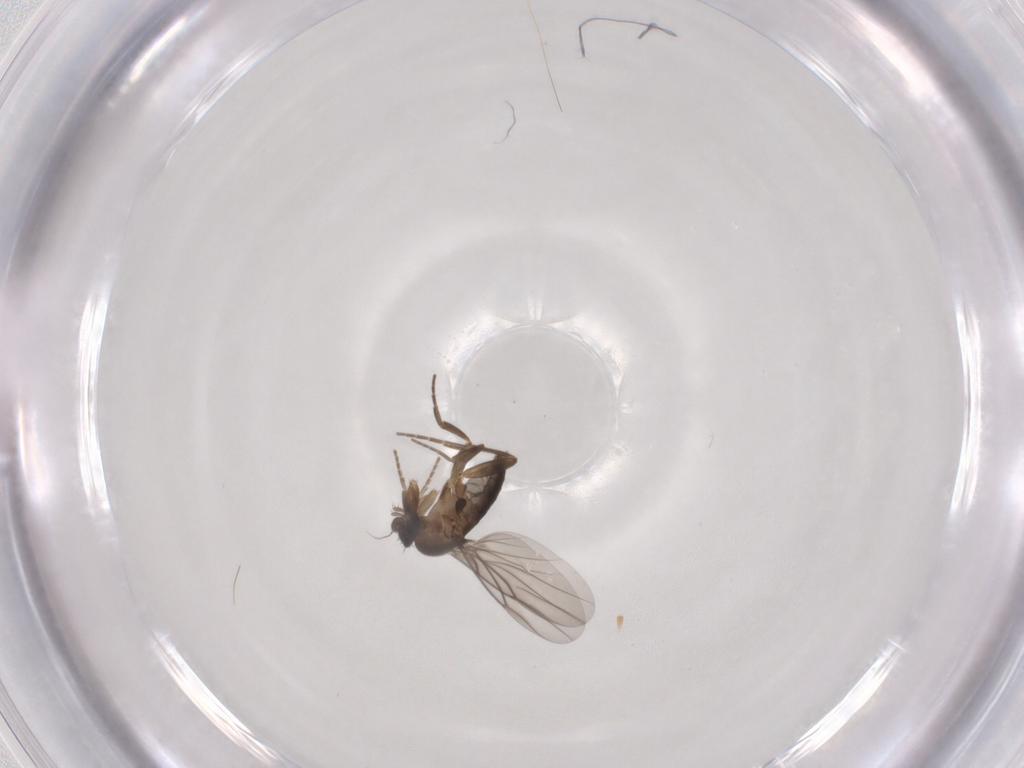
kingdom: Animalia
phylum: Arthropoda
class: Insecta
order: Diptera
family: Phoridae
